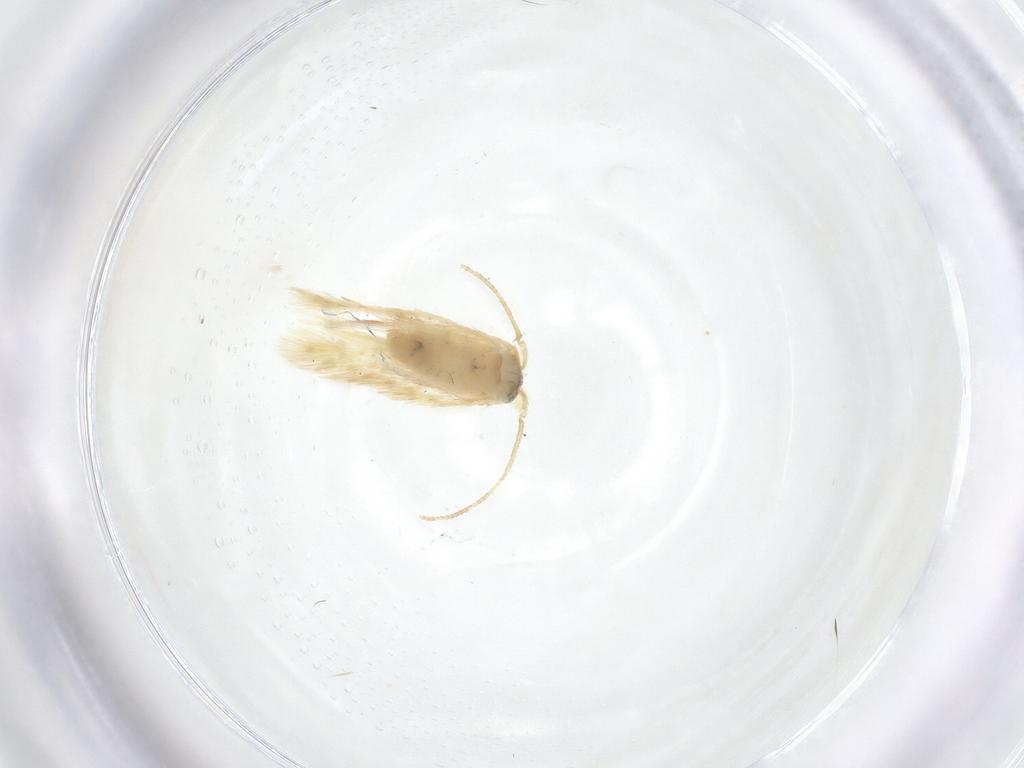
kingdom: Animalia
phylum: Arthropoda
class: Insecta
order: Lepidoptera
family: Nepticulidae
